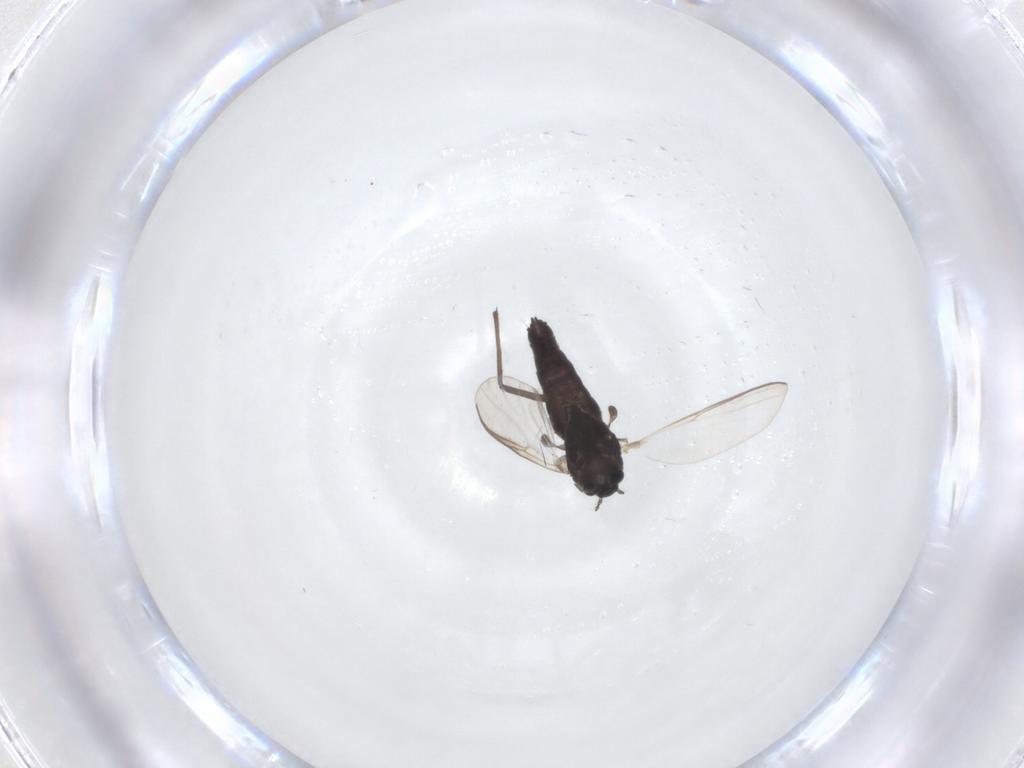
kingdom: Animalia
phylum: Arthropoda
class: Insecta
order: Diptera
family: Chironomidae
